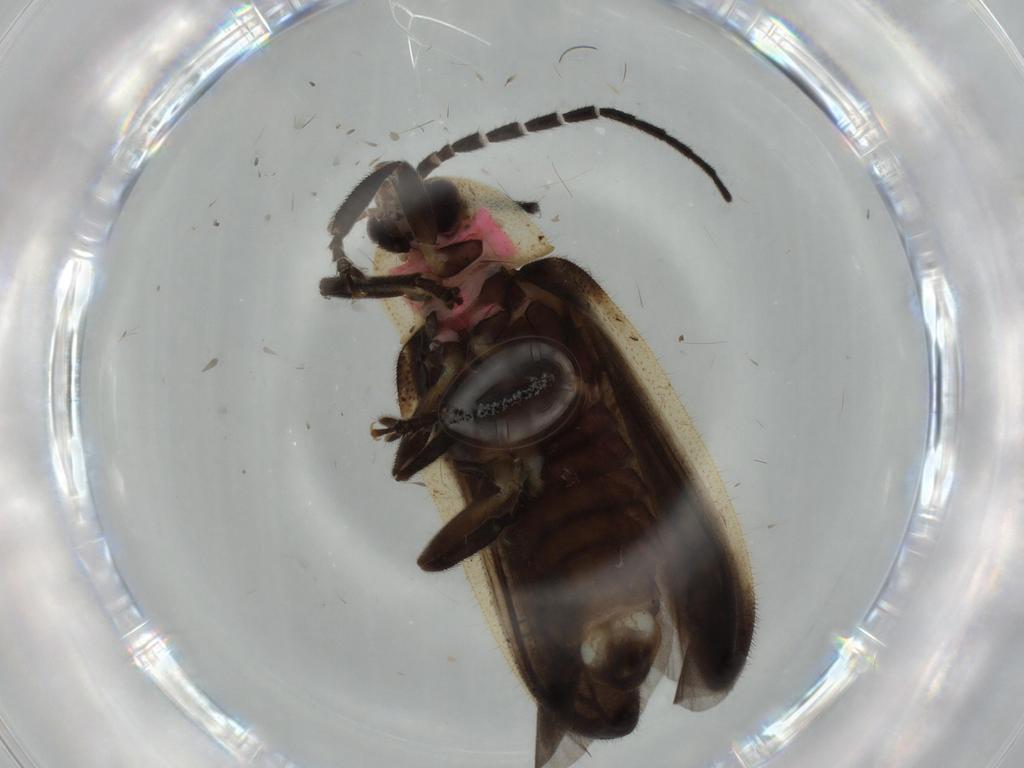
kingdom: Animalia
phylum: Arthropoda
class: Insecta
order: Coleoptera
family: Lampyridae
